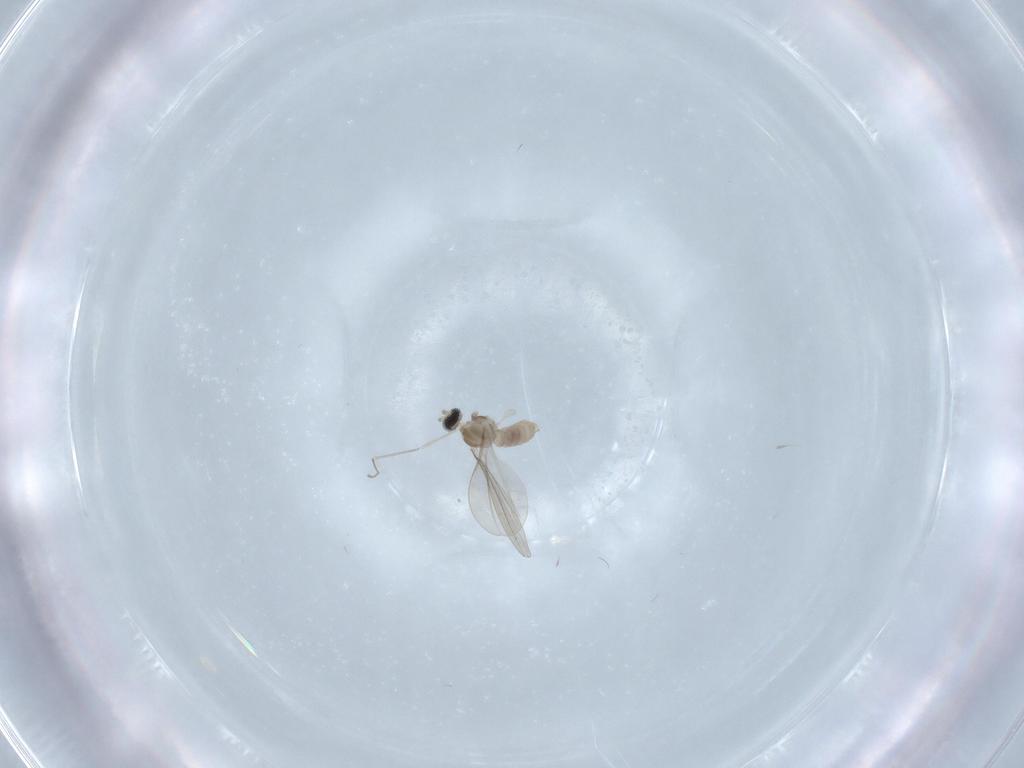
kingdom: Animalia
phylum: Arthropoda
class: Insecta
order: Diptera
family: Cecidomyiidae
